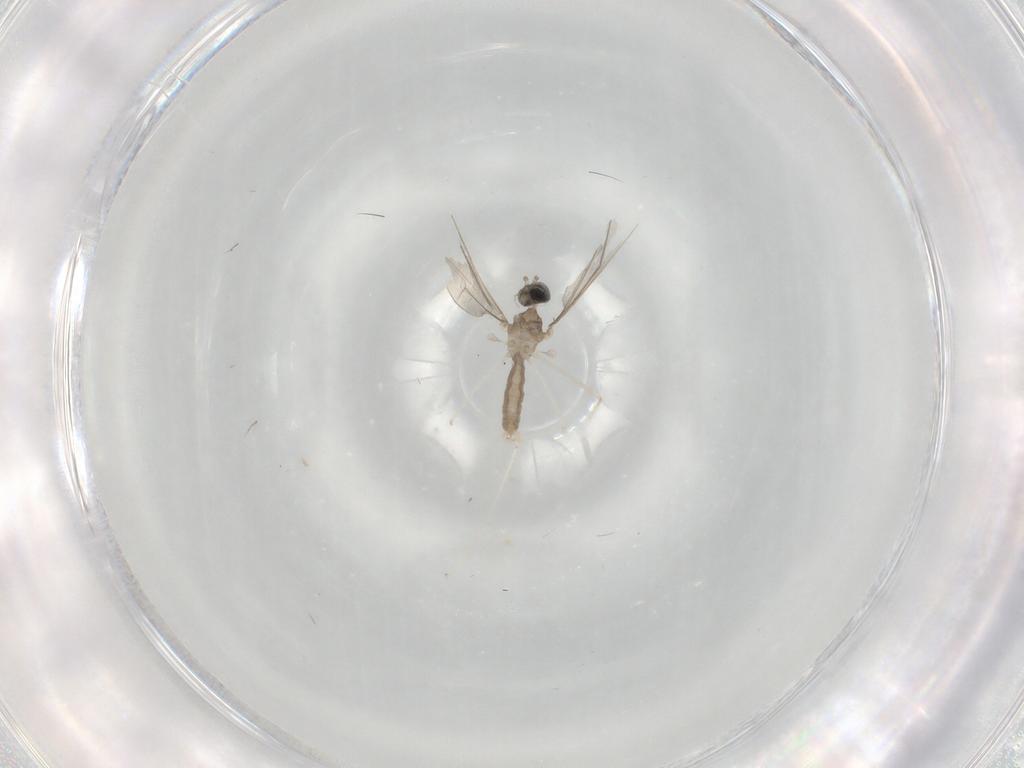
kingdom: Animalia
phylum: Arthropoda
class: Insecta
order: Diptera
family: Cecidomyiidae
